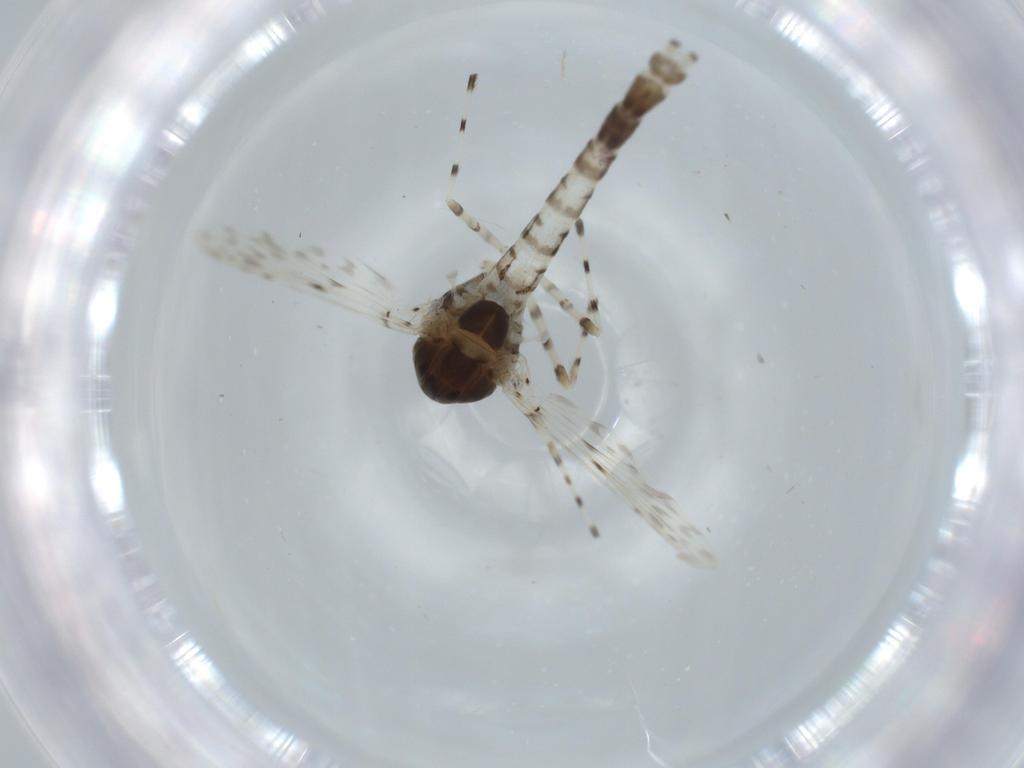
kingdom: Animalia
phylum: Arthropoda
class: Insecta
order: Diptera
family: Chironomidae
